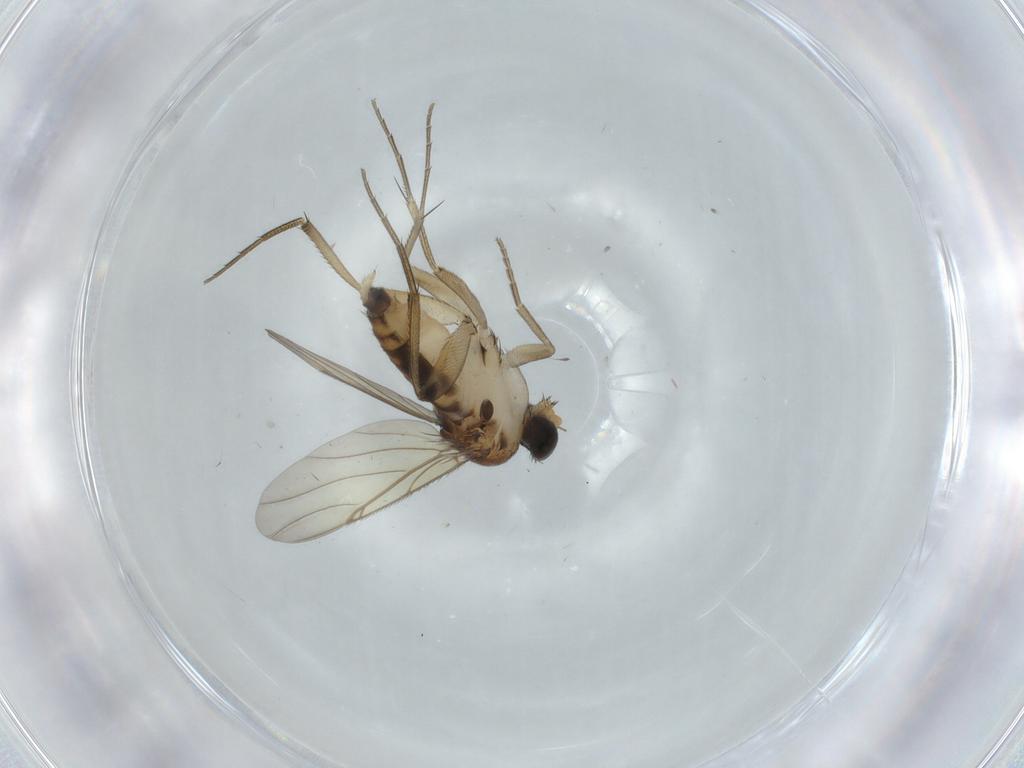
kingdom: Animalia
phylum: Arthropoda
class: Insecta
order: Diptera
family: Phoridae
